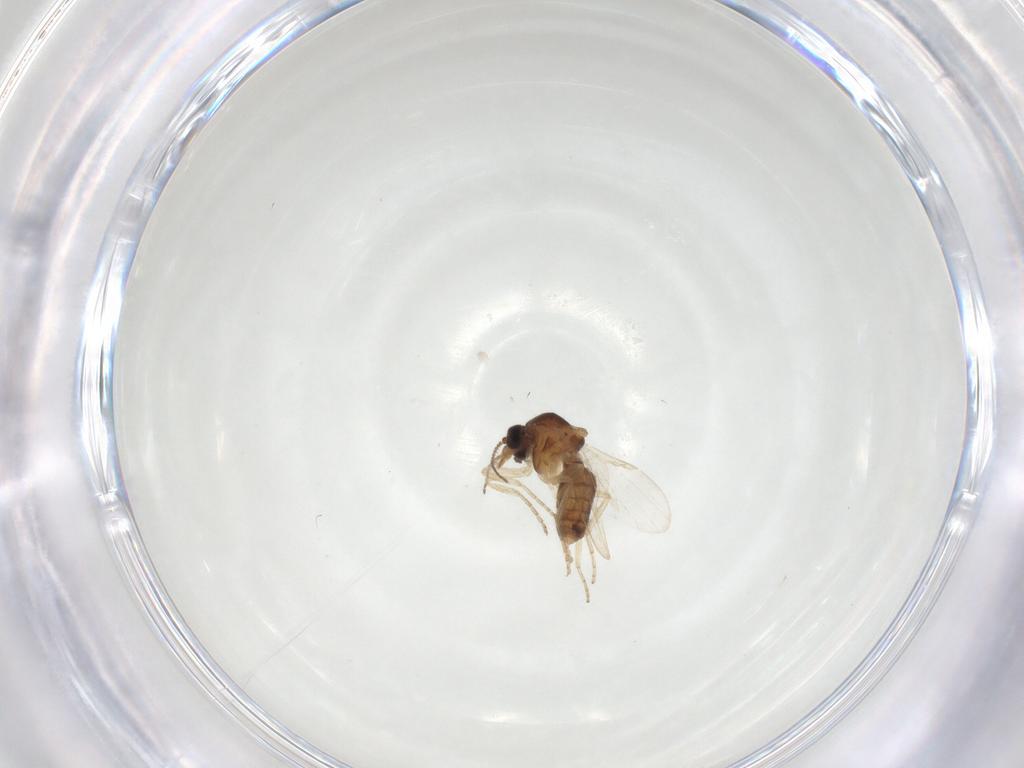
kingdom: Animalia
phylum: Arthropoda
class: Insecta
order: Diptera
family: Ceratopogonidae
